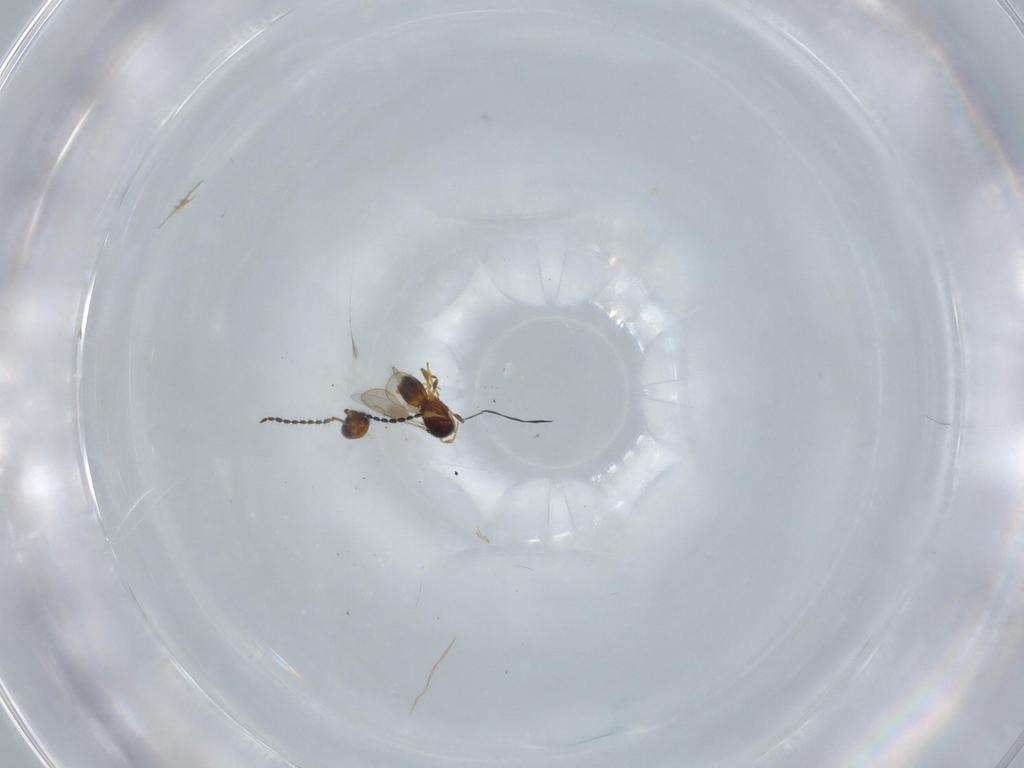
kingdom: Animalia
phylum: Arthropoda
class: Insecta
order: Hymenoptera
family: Ceraphronidae
